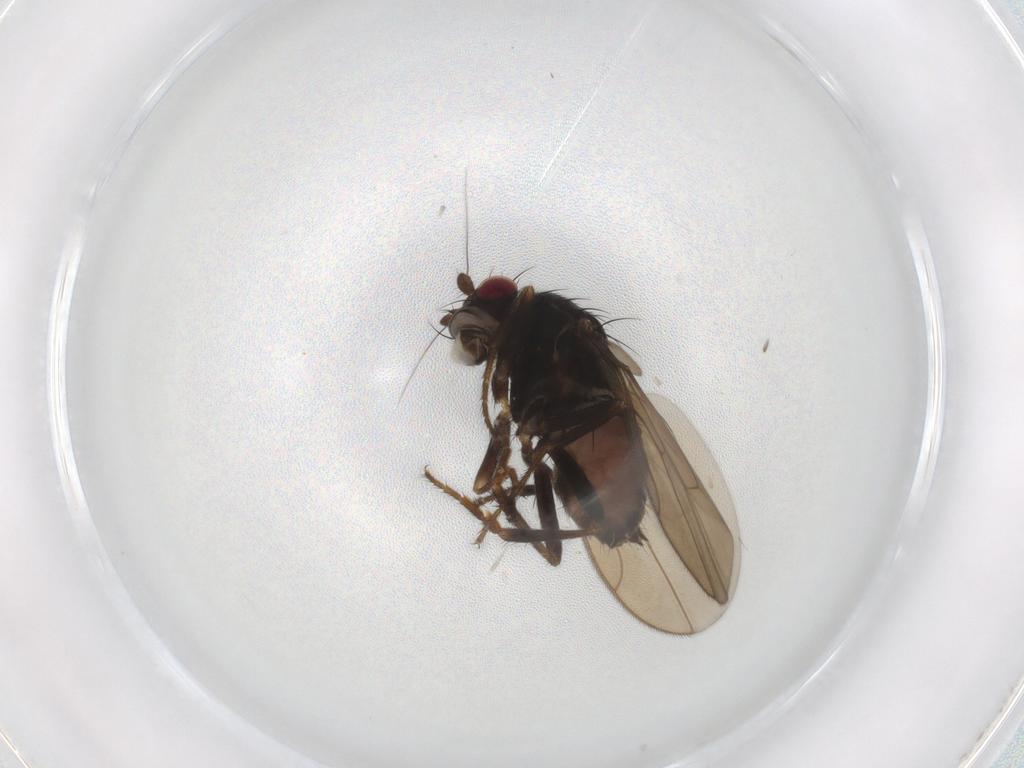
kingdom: Animalia
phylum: Arthropoda
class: Insecta
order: Diptera
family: Sphaeroceridae
